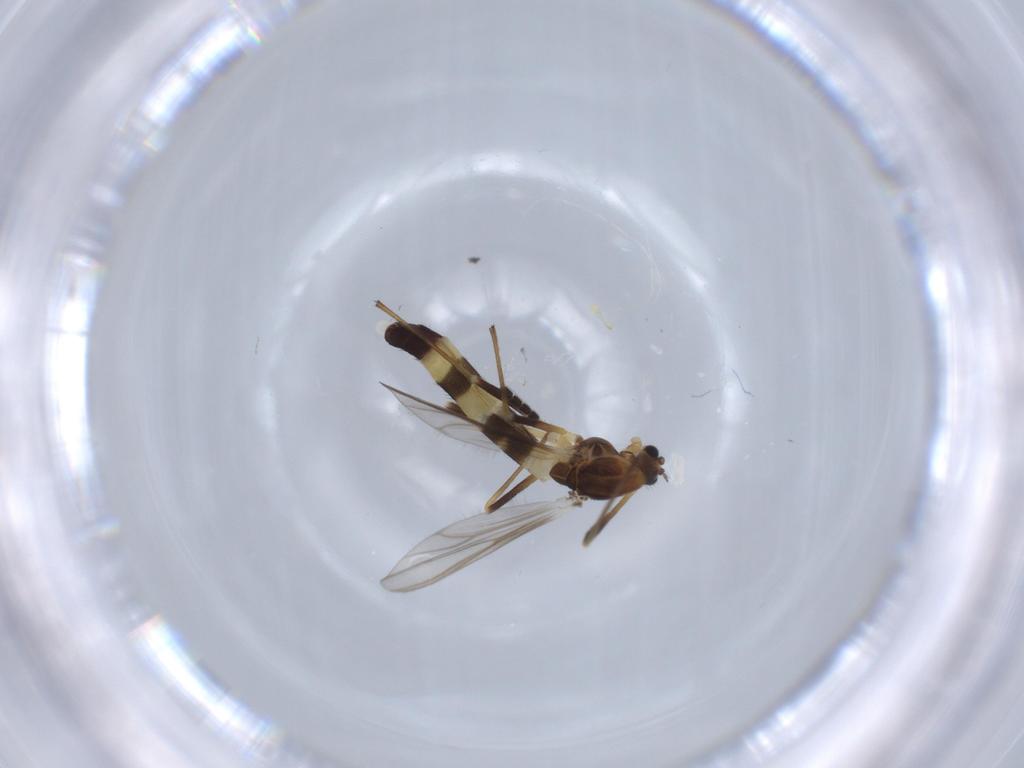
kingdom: Animalia
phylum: Arthropoda
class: Insecta
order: Diptera
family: Chironomidae
